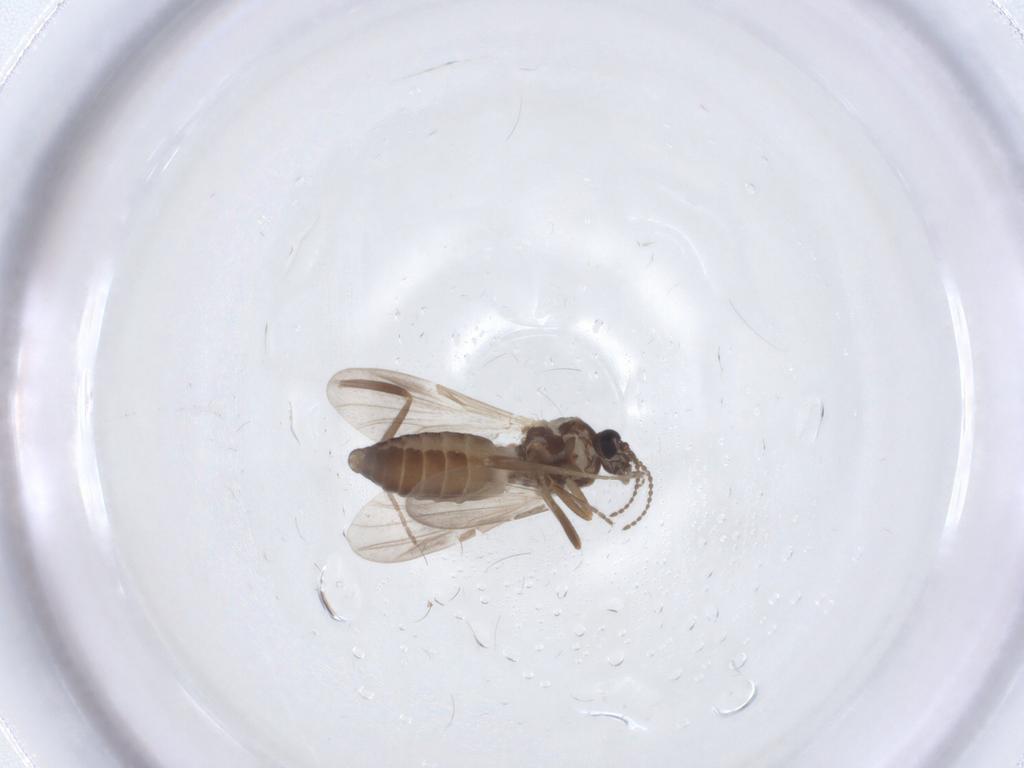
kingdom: Animalia
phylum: Arthropoda
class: Insecta
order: Diptera
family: Ceratopogonidae
